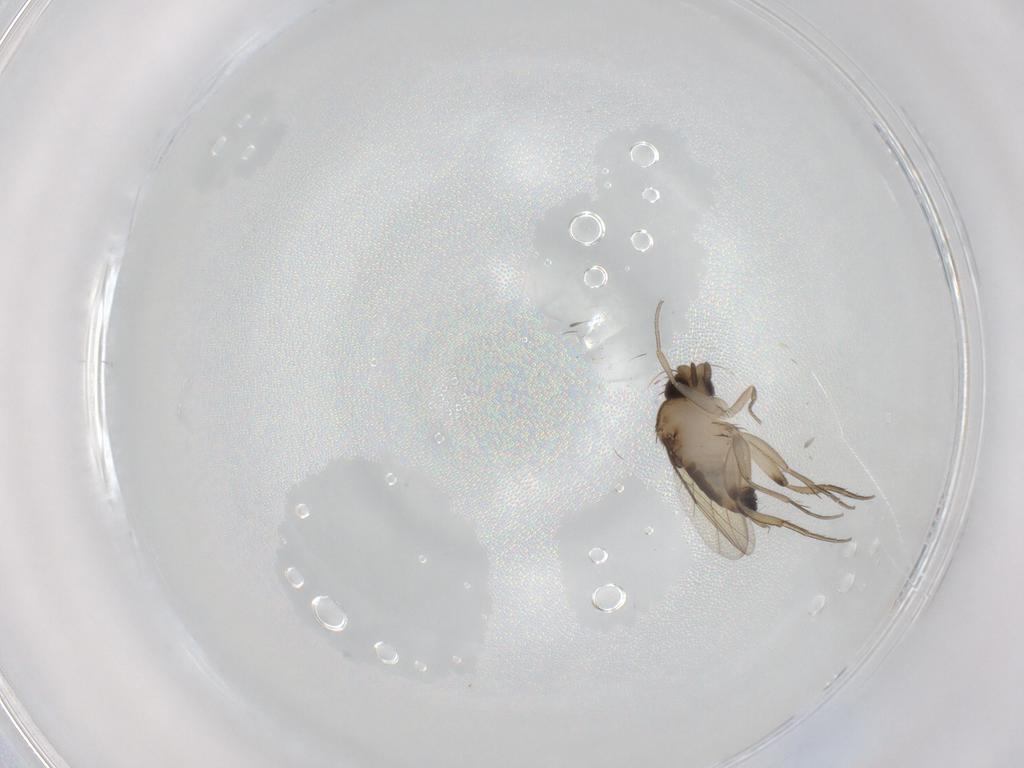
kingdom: Animalia
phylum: Arthropoda
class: Insecta
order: Diptera
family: Phoridae
